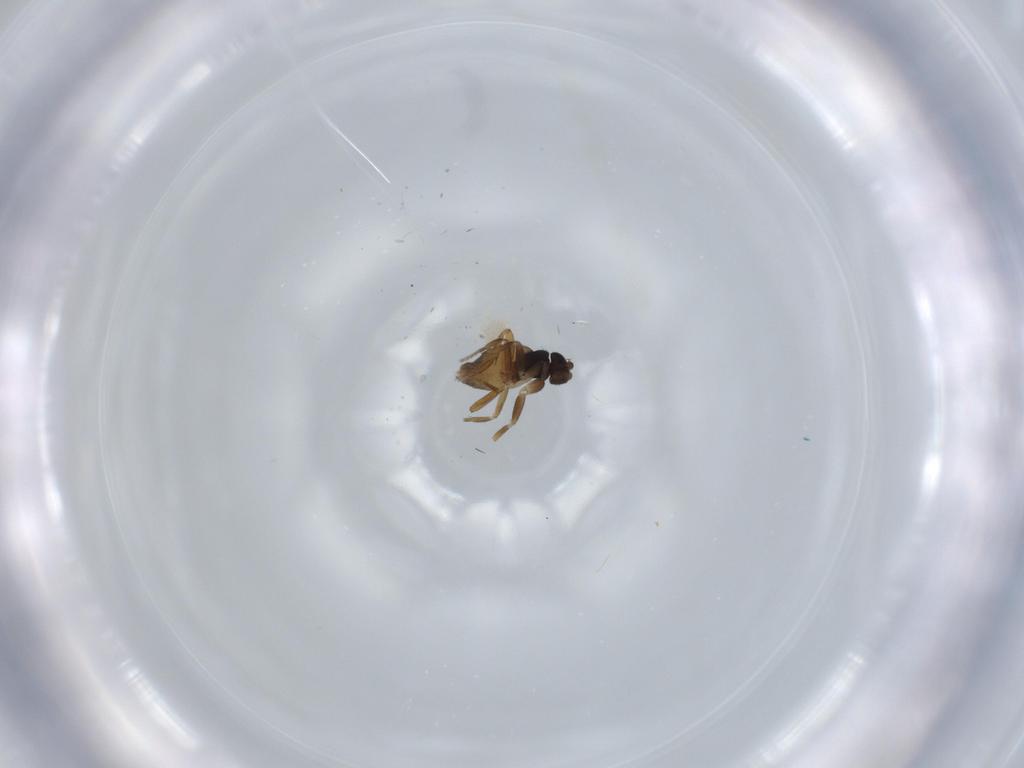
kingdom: Animalia
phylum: Arthropoda
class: Insecta
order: Diptera
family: Phoridae
